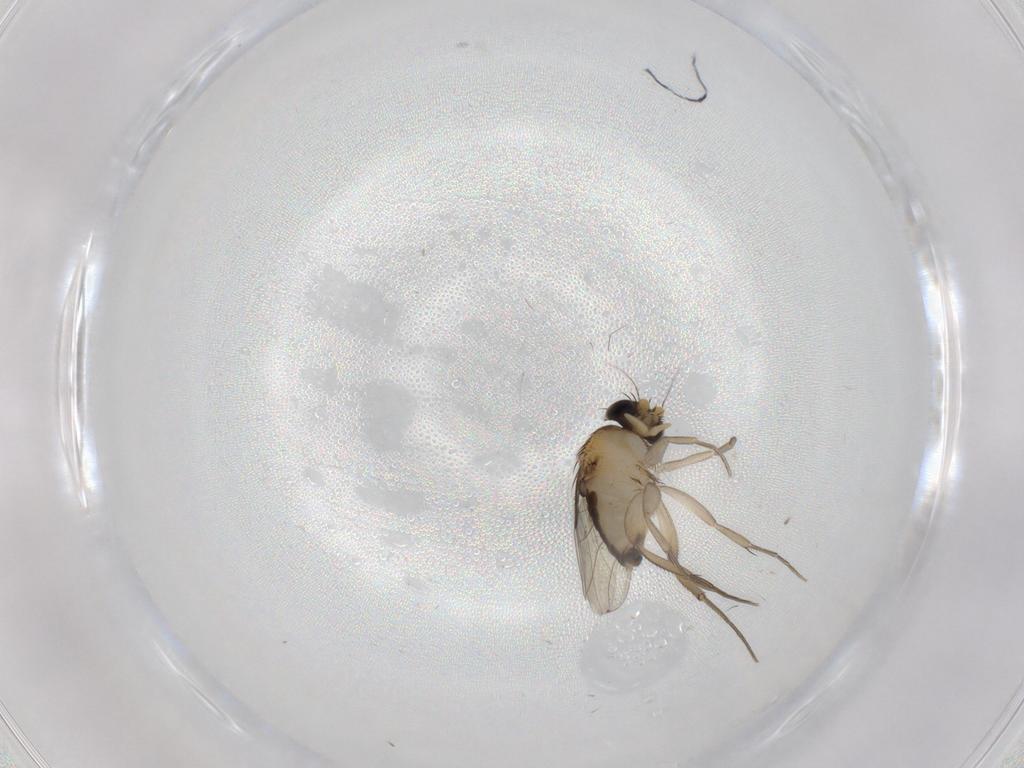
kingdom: Animalia
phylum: Arthropoda
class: Insecta
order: Diptera
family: Phoridae
